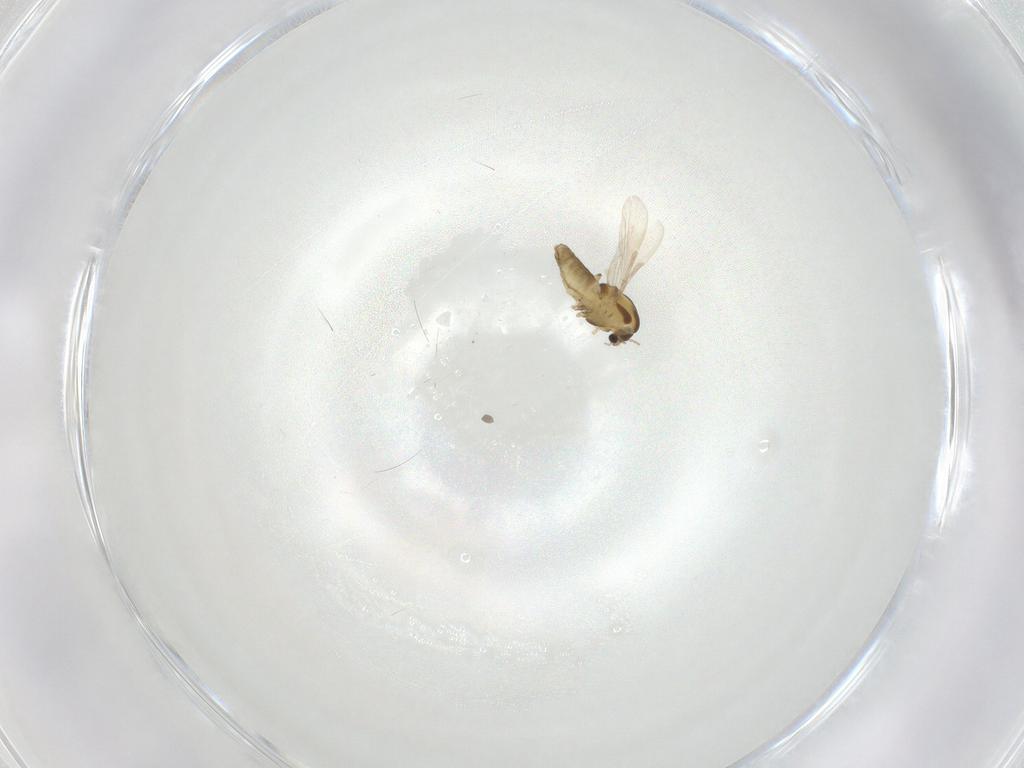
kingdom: Animalia
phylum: Arthropoda
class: Insecta
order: Diptera
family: Chironomidae
